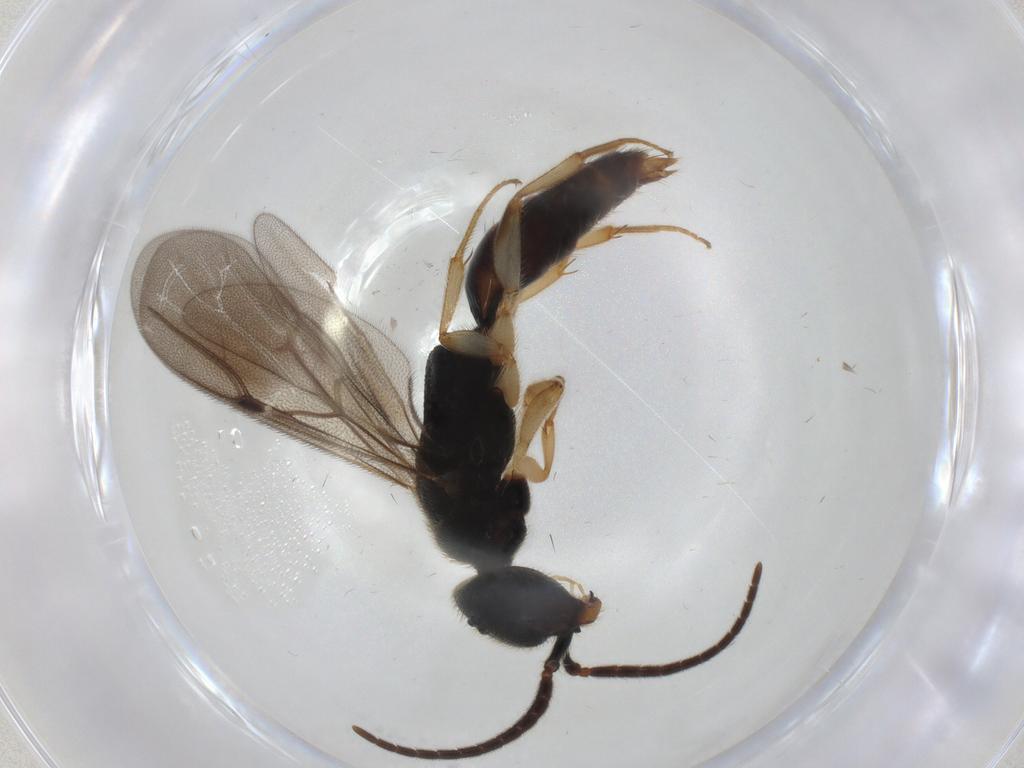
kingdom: Animalia
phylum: Arthropoda
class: Insecta
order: Hymenoptera
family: Bethylidae
